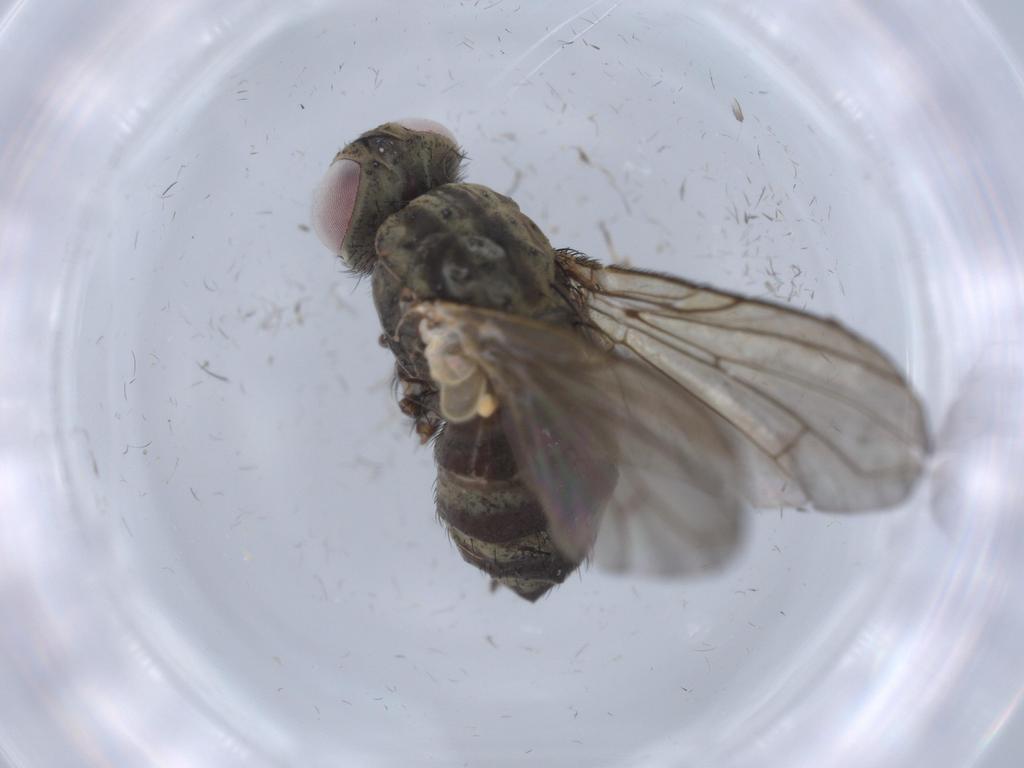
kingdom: Animalia
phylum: Arthropoda
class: Insecta
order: Diptera
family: Calliphoridae
